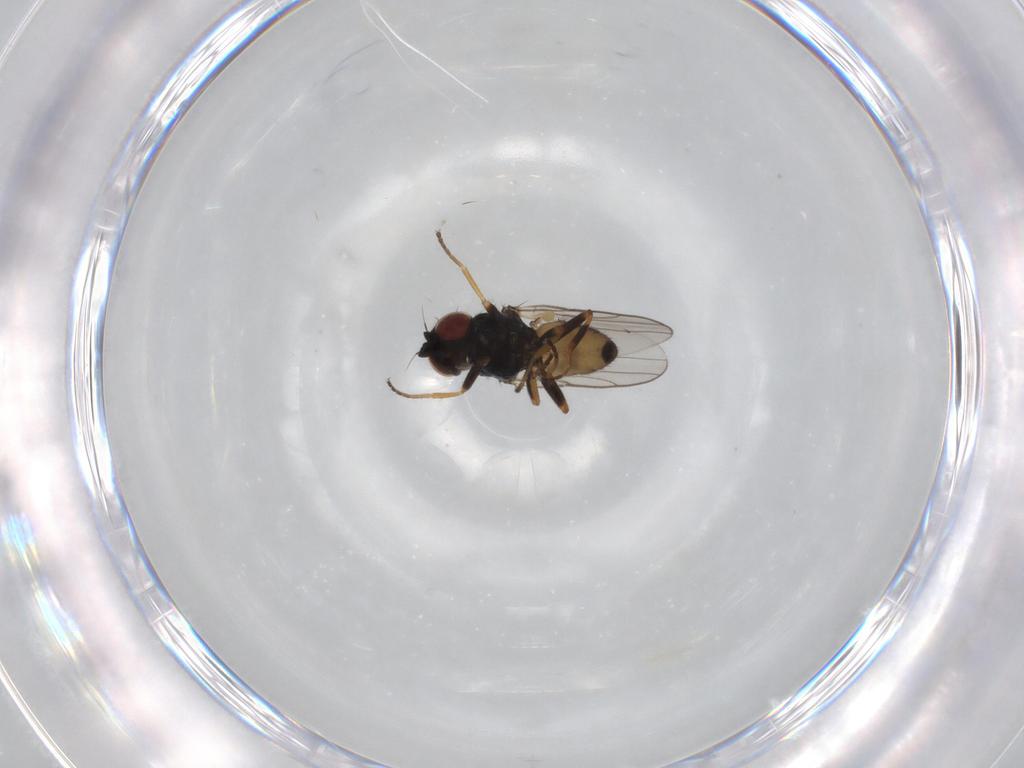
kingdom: Animalia
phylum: Arthropoda
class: Insecta
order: Diptera
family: Chloropidae
